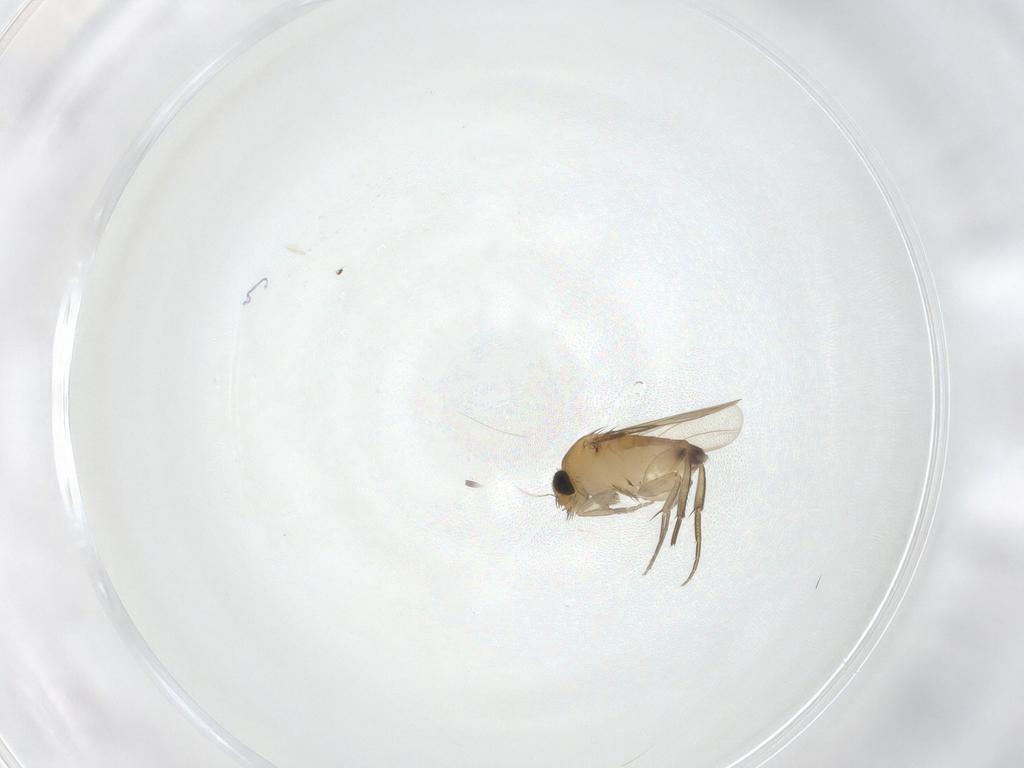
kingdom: Animalia
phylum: Arthropoda
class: Insecta
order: Diptera
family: Phoridae
